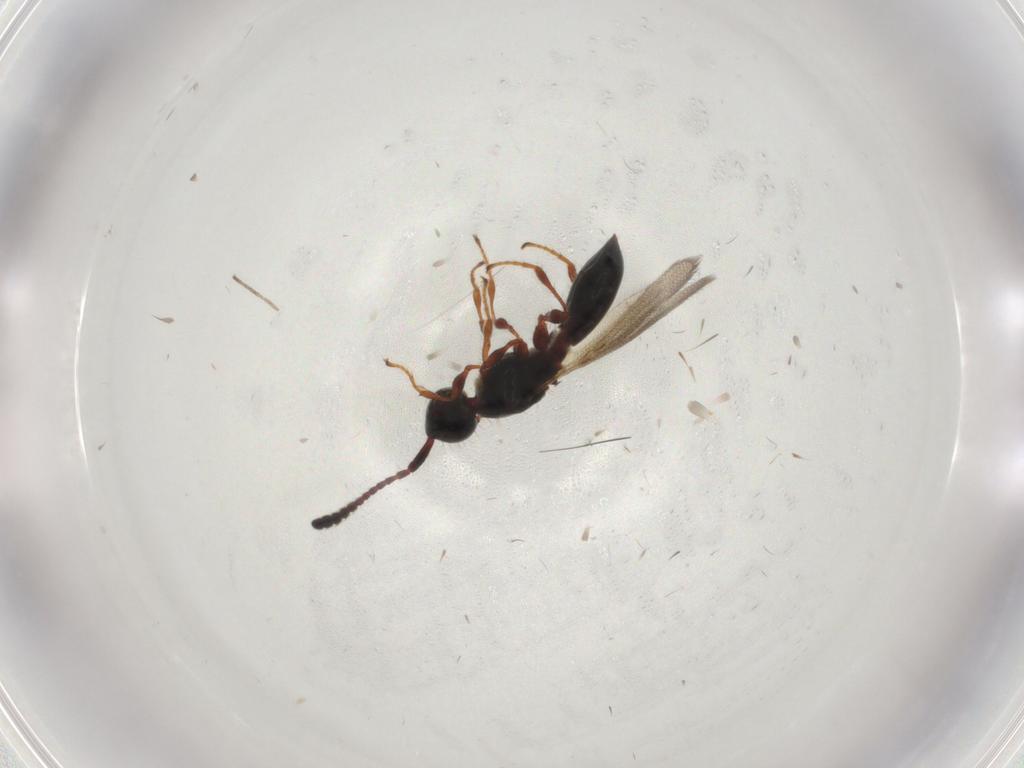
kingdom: Animalia
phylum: Arthropoda
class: Insecta
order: Hymenoptera
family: Diapriidae
